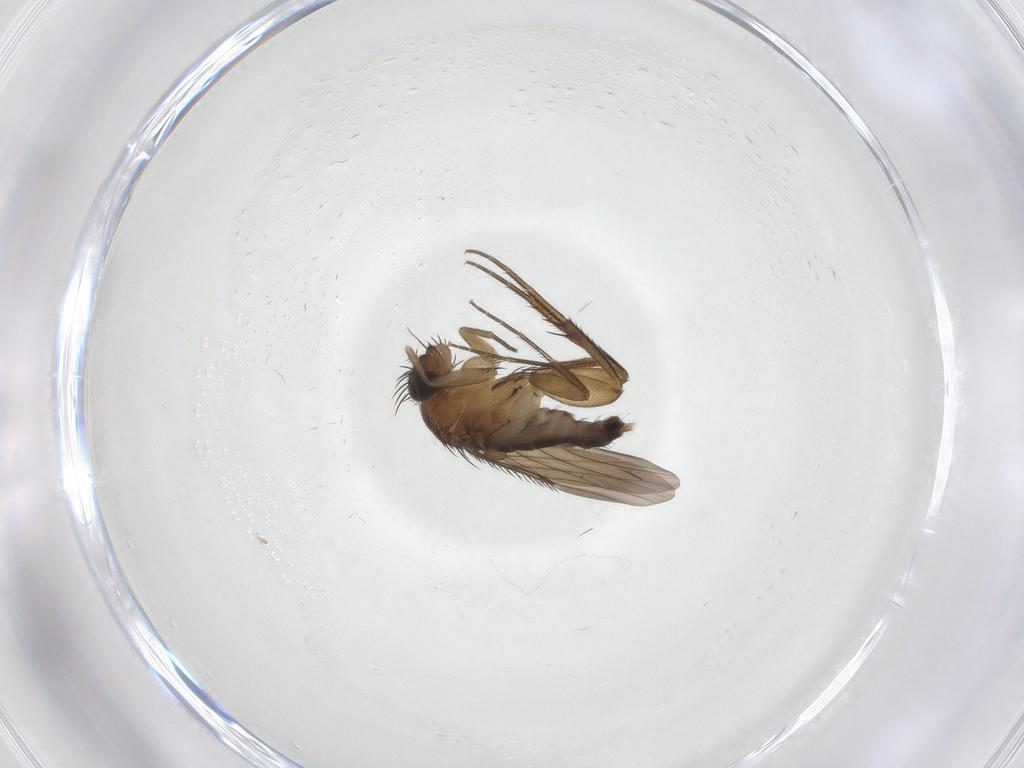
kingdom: Animalia
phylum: Arthropoda
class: Insecta
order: Diptera
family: Phoridae
